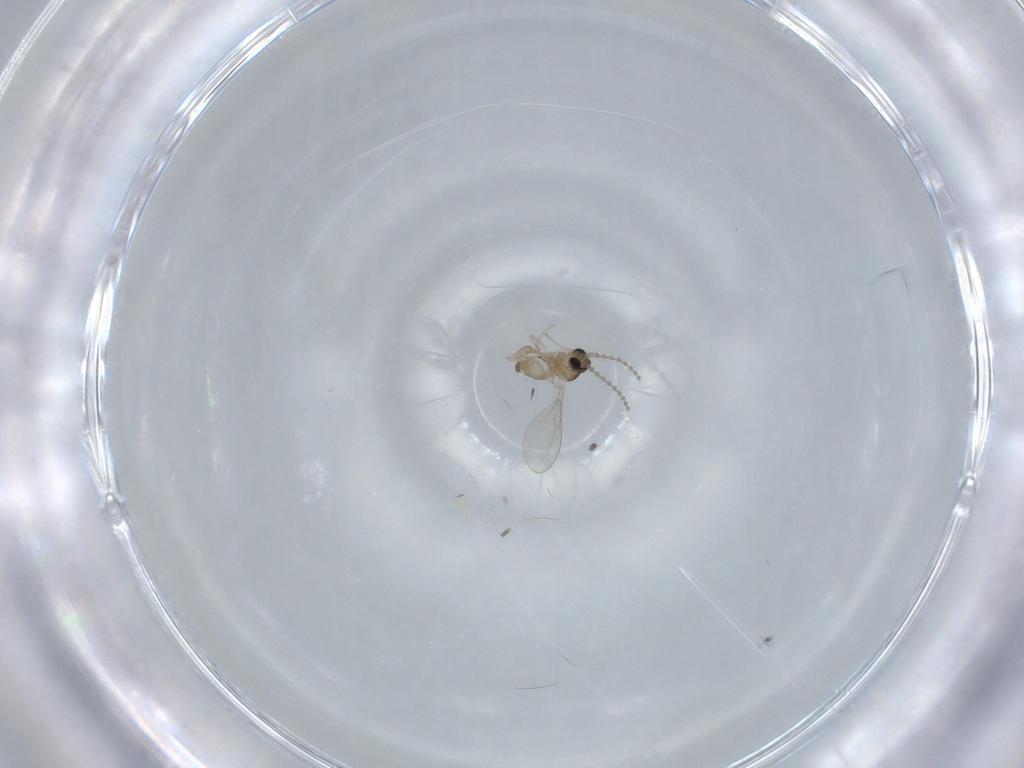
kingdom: Animalia
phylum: Arthropoda
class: Insecta
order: Diptera
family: Cecidomyiidae
